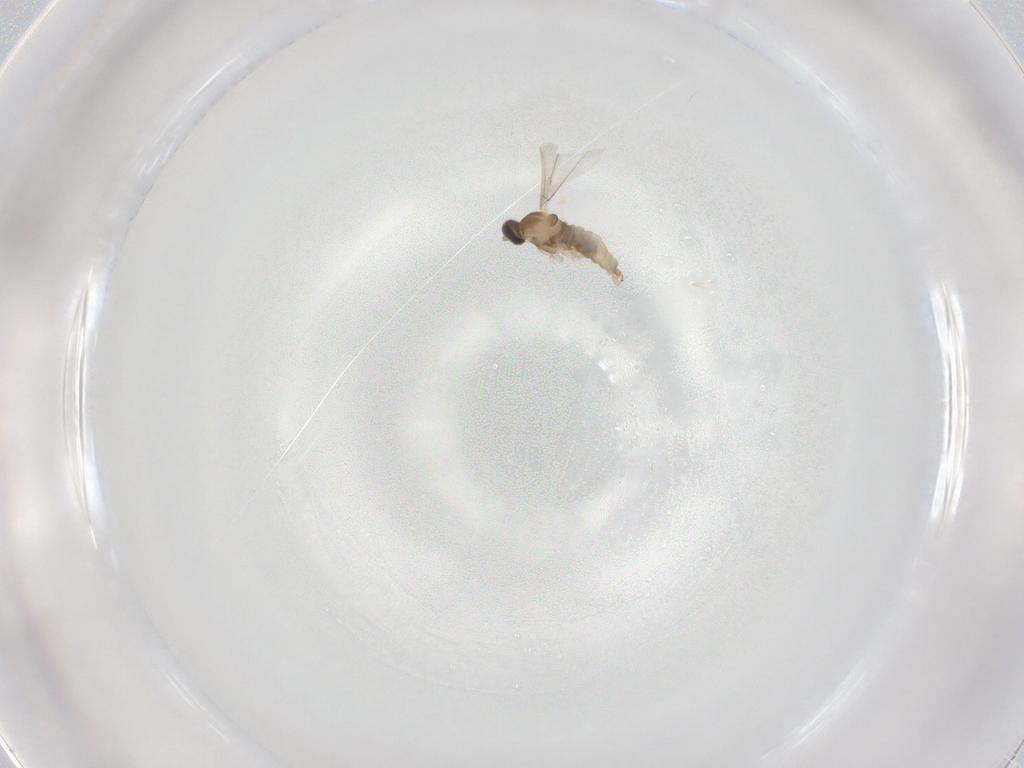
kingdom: Animalia
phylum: Arthropoda
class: Insecta
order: Diptera
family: Cecidomyiidae
